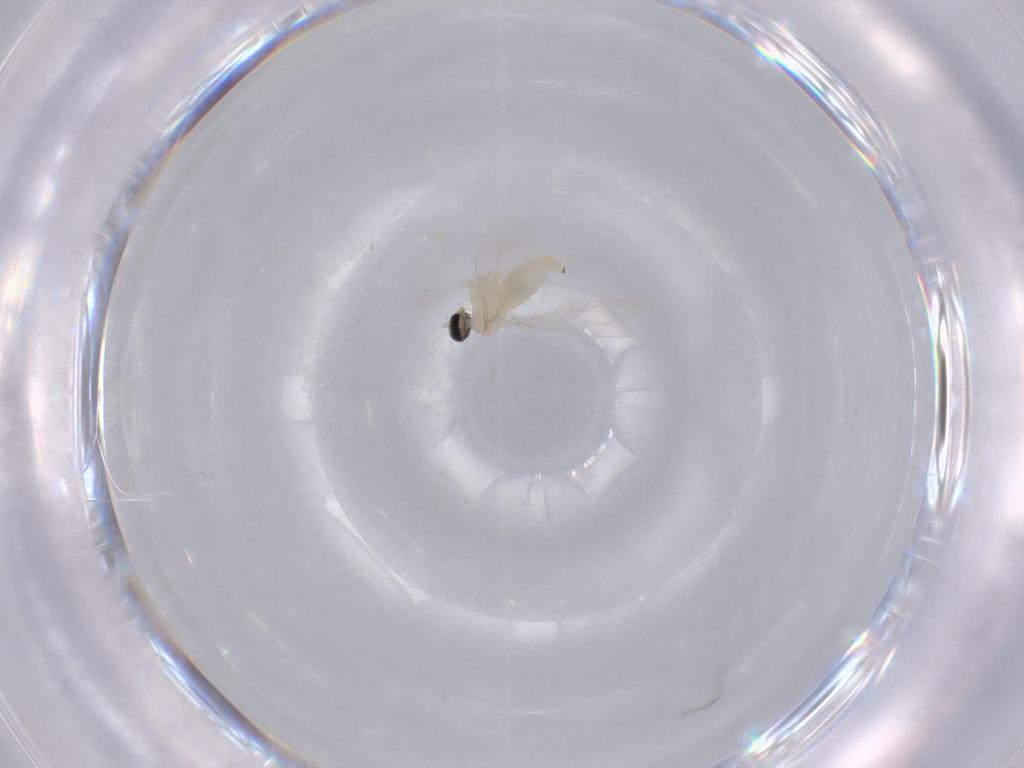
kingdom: Animalia
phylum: Arthropoda
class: Insecta
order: Diptera
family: Cecidomyiidae
